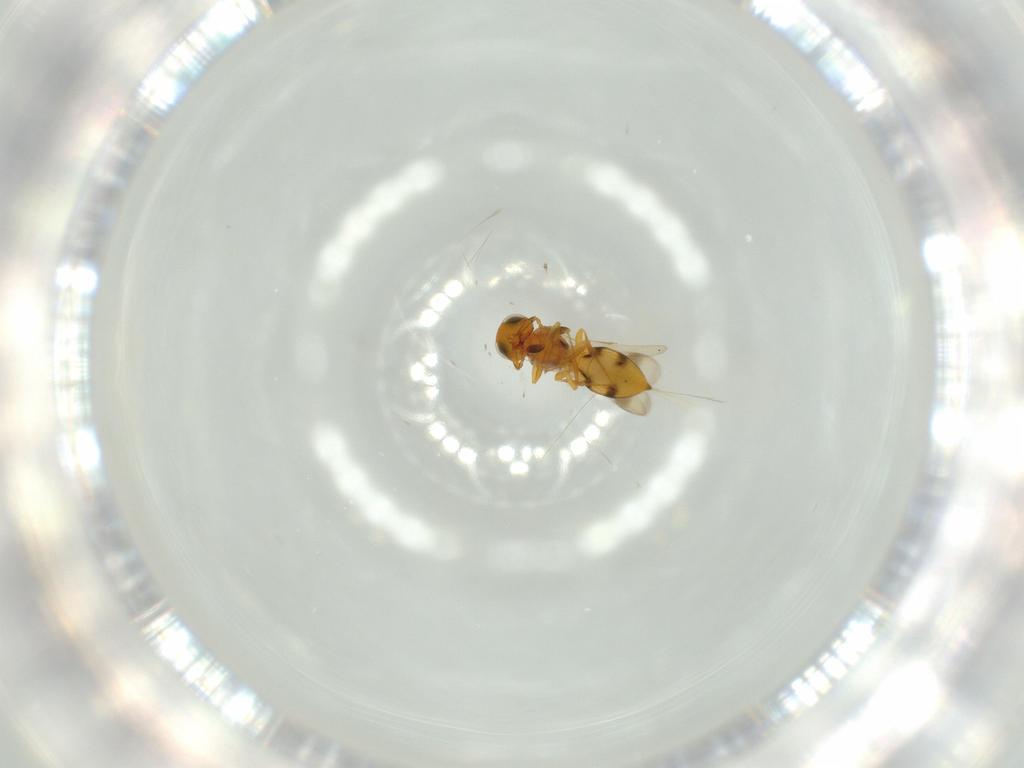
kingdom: Animalia
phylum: Arthropoda
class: Insecta
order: Hymenoptera
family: Scelionidae
